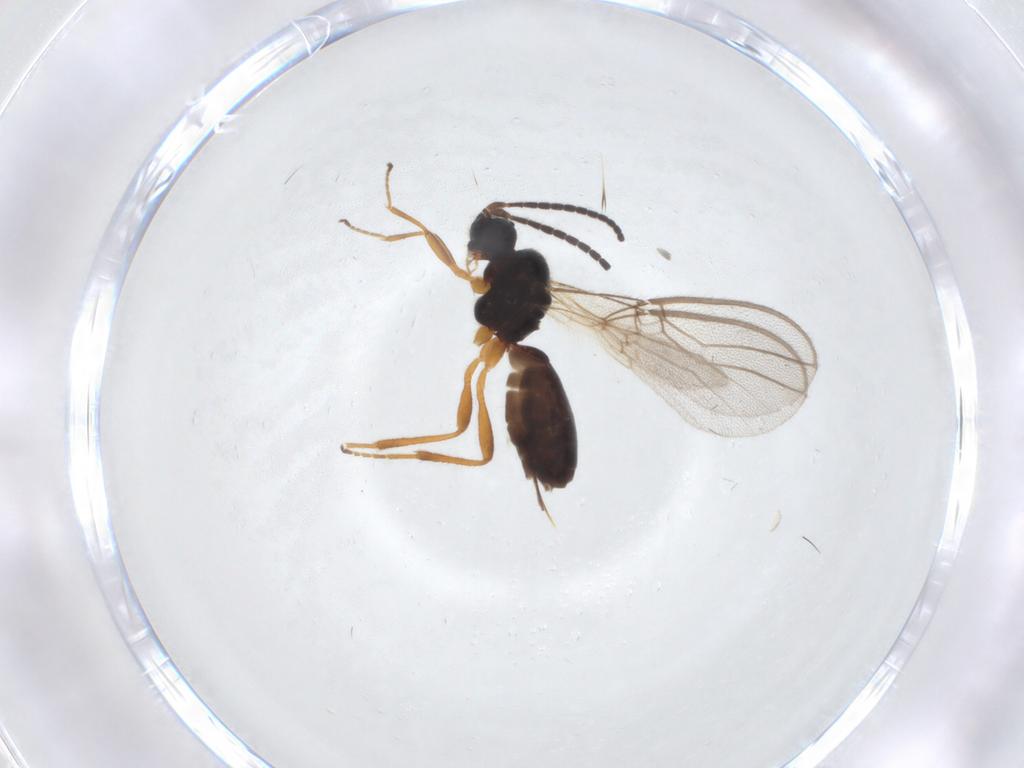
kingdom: Animalia
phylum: Arthropoda
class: Insecta
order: Hymenoptera
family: Braconidae
